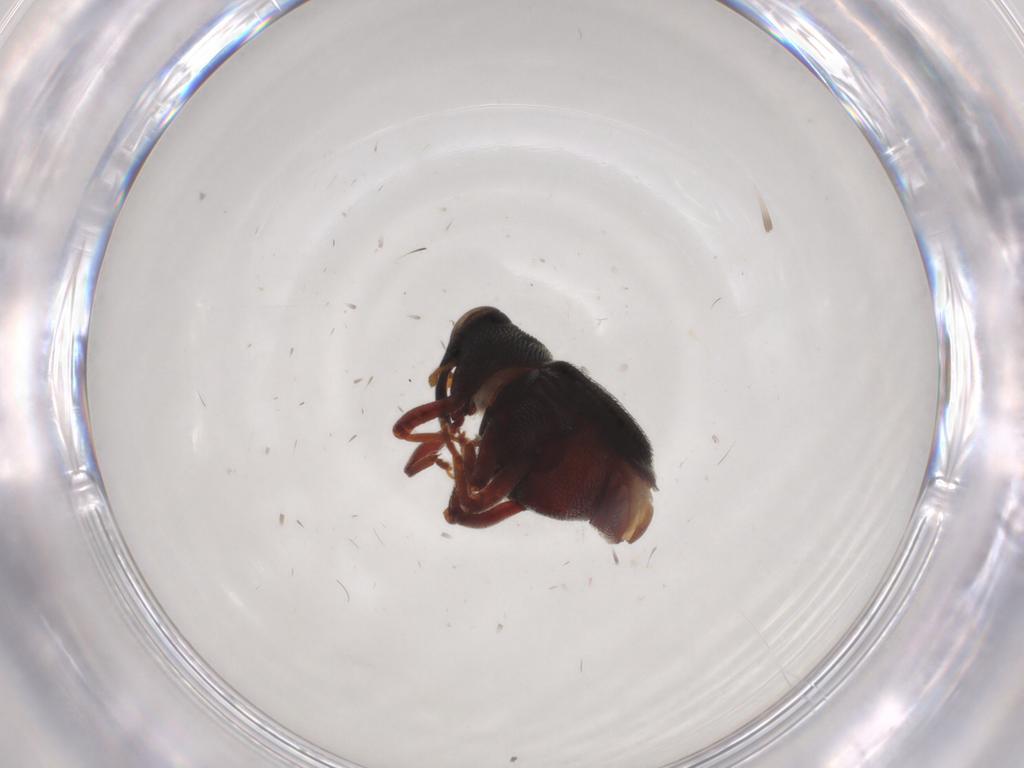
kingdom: Animalia
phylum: Arthropoda
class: Insecta
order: Coleoptera
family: Curculionidae
